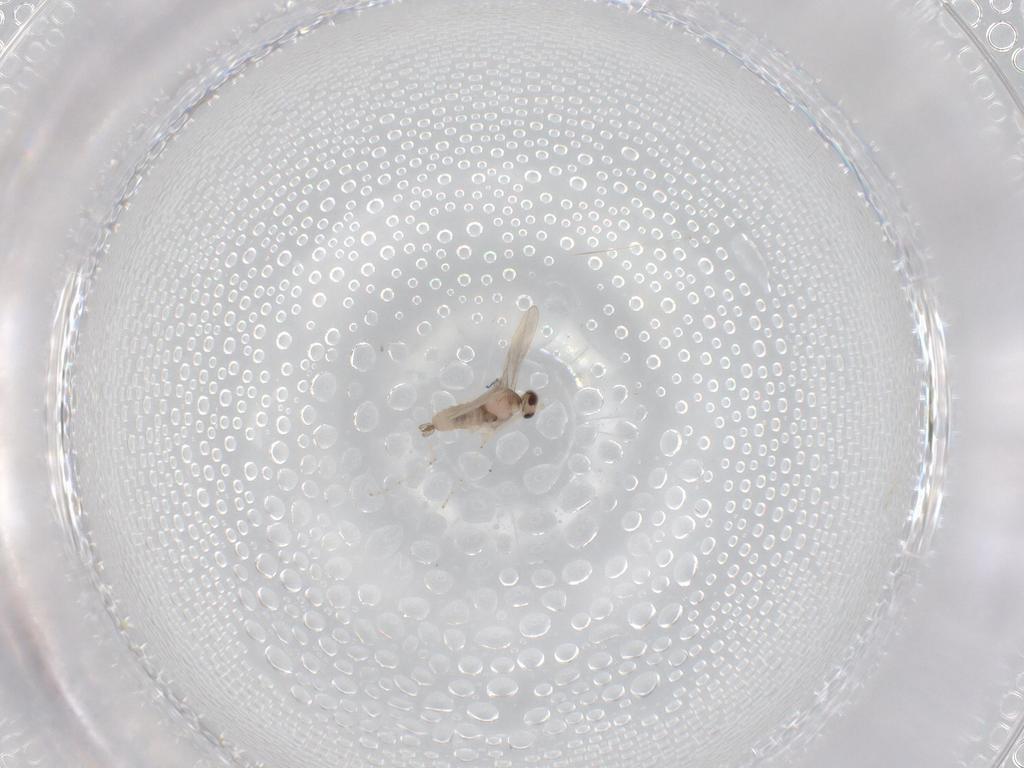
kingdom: Animalia
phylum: Arthropoda
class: Insecta
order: Diptera
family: Cecidomyiidae
